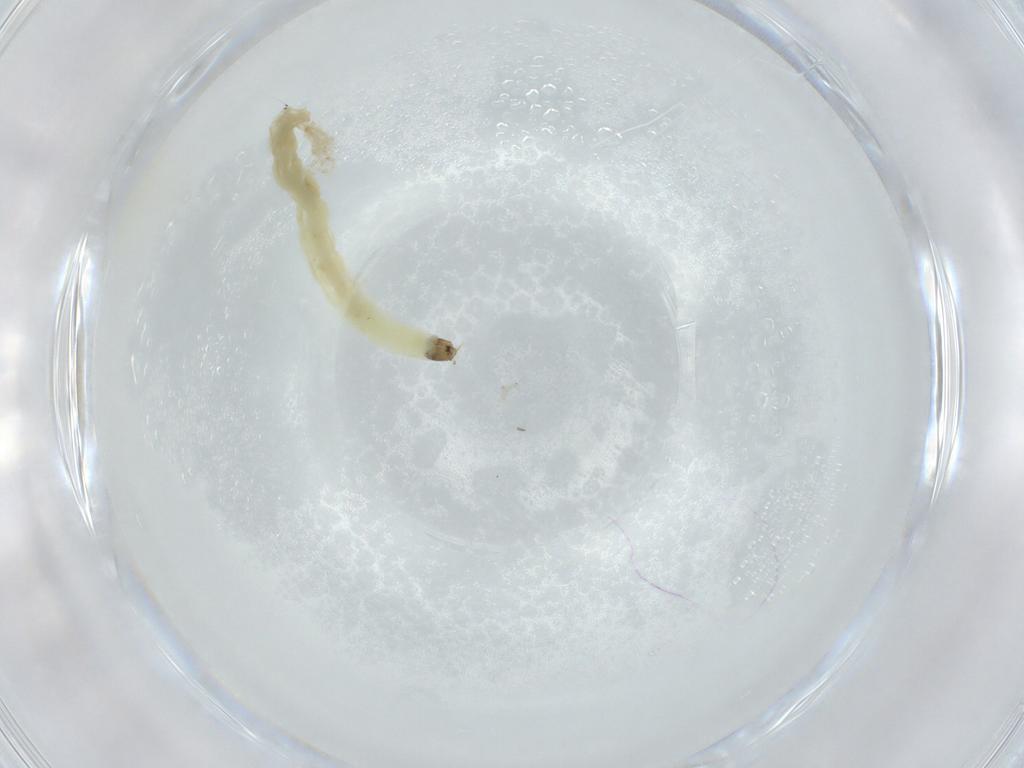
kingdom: Animalia
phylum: Arthropoda
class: Insecta
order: Diptera
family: Chironomidae
